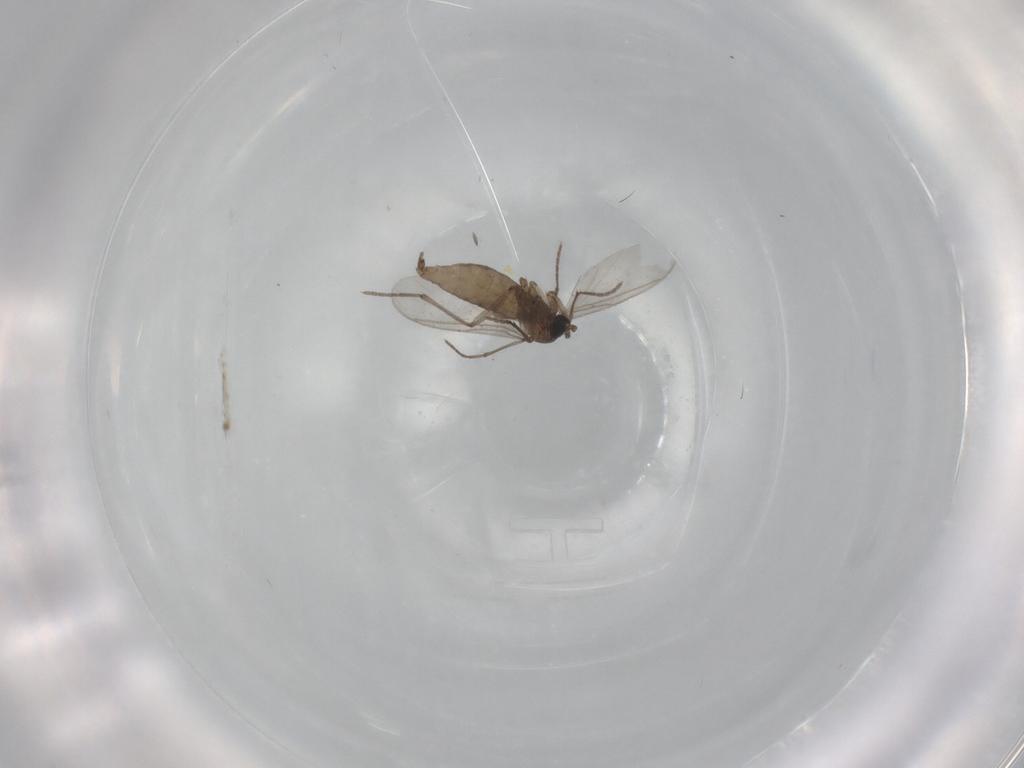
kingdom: Animalia
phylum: Arthropoda
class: Insecta
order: Diptera
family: Sciaridae
